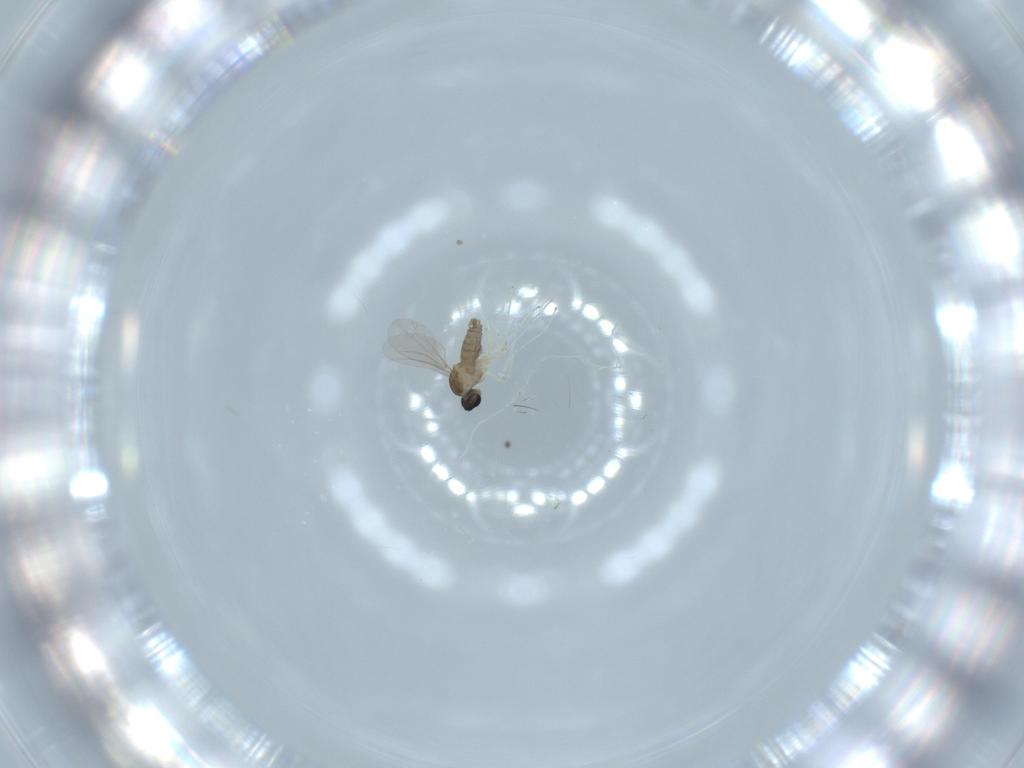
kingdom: Animalia
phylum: Arthropoda
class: Insecta
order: Diptera
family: Cecidomyiidae
